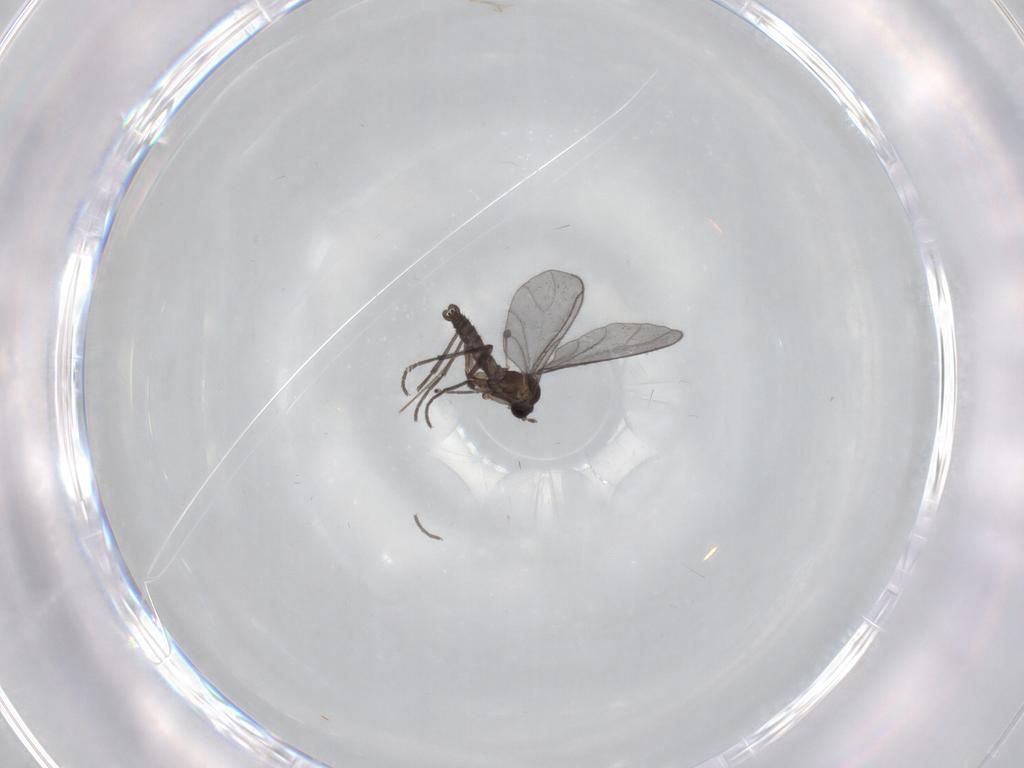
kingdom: Animalia
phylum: Arthropoda
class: Insecta
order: Diptera
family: Sciaridae
